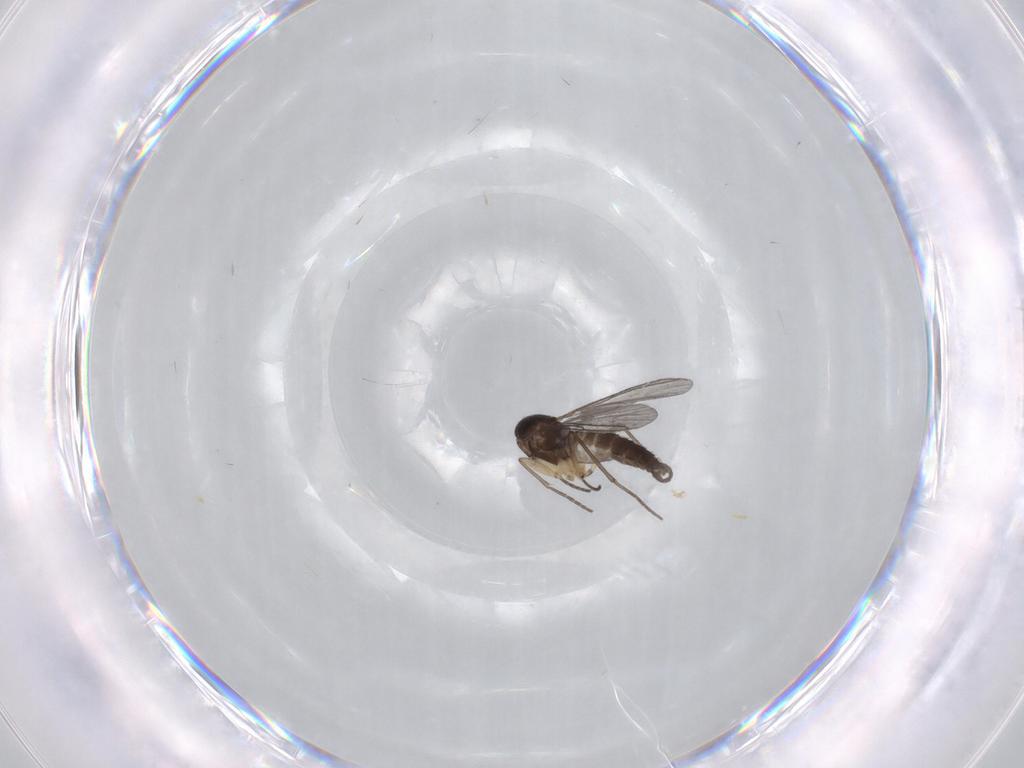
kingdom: Animalia
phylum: Arthropoda
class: Insecta
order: Diptera
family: Sciaridae
